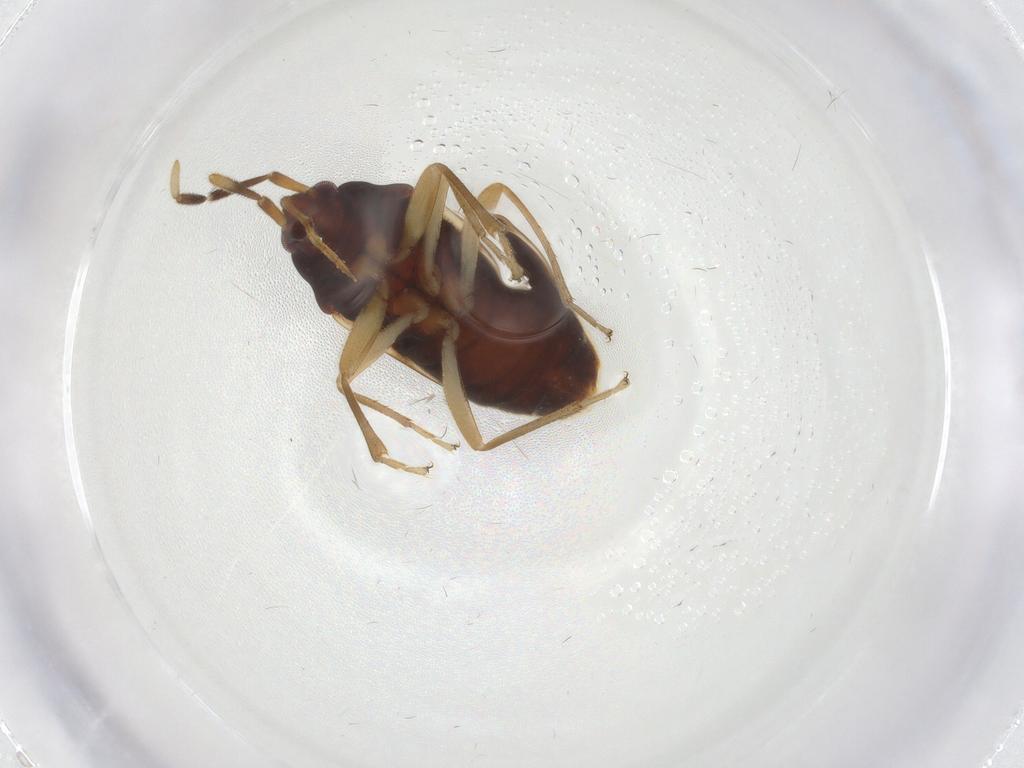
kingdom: Animalia
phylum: Arthropoda
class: Insecta
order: Hemiptera
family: Rhyparochromidae
